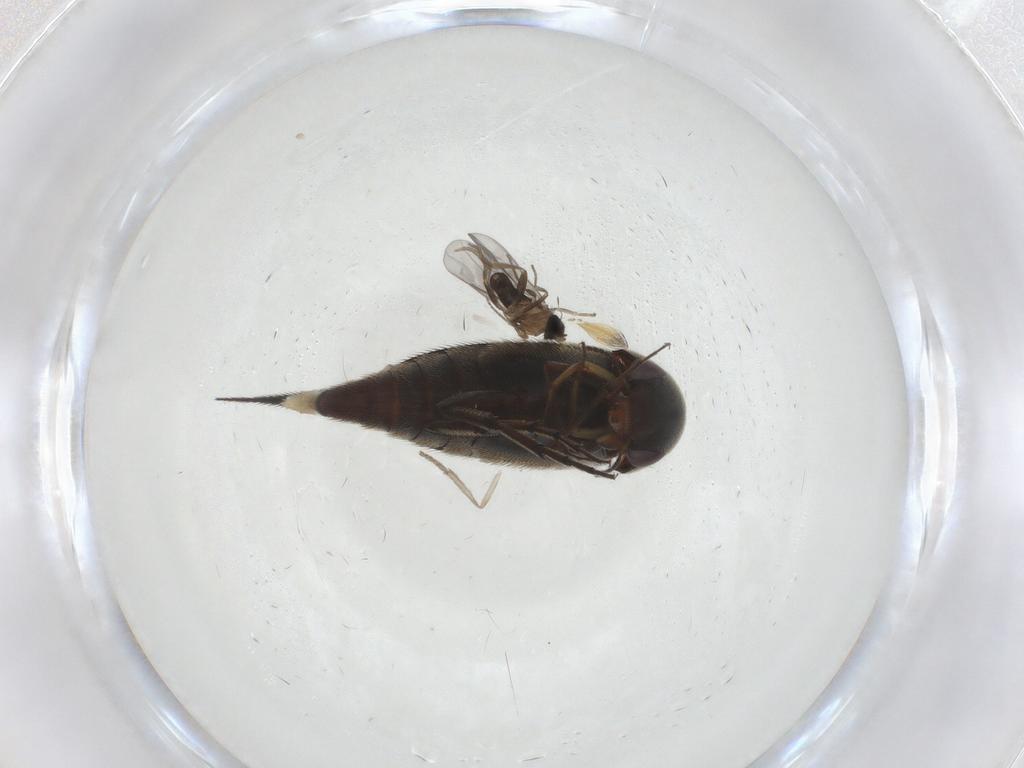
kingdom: Animalia
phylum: Arthropoda
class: Insecta
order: Coleoptera
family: Mordellidae
